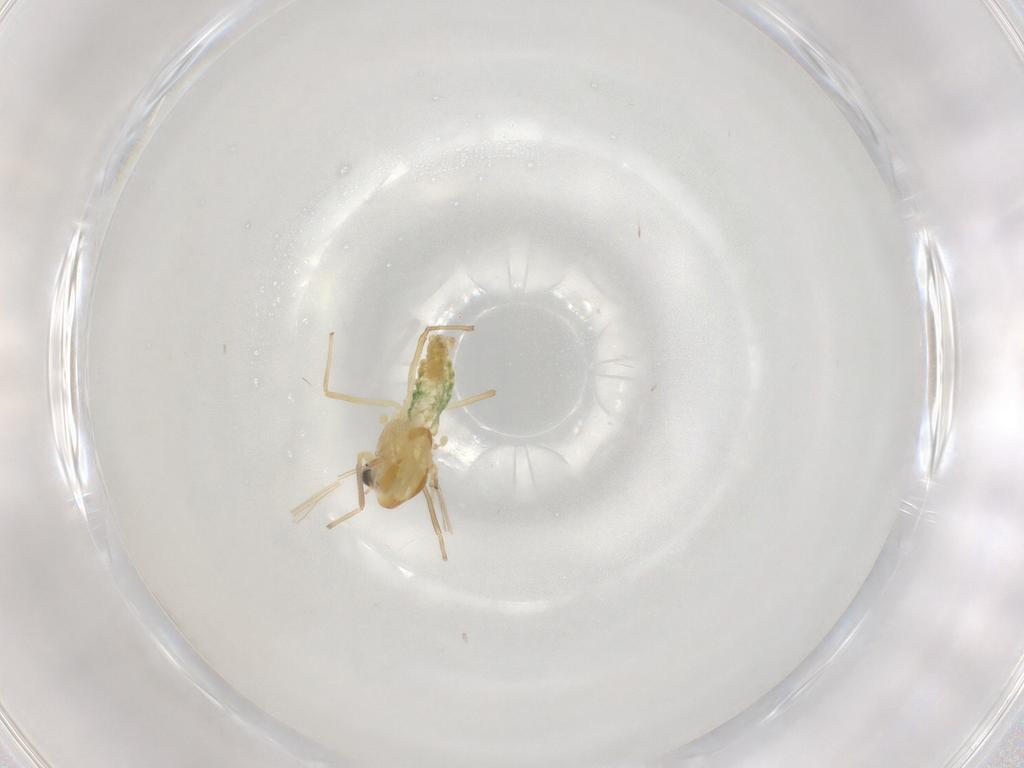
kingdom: Animalia
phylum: Arthropoda
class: Insecta
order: Diptera
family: Chironomidae
